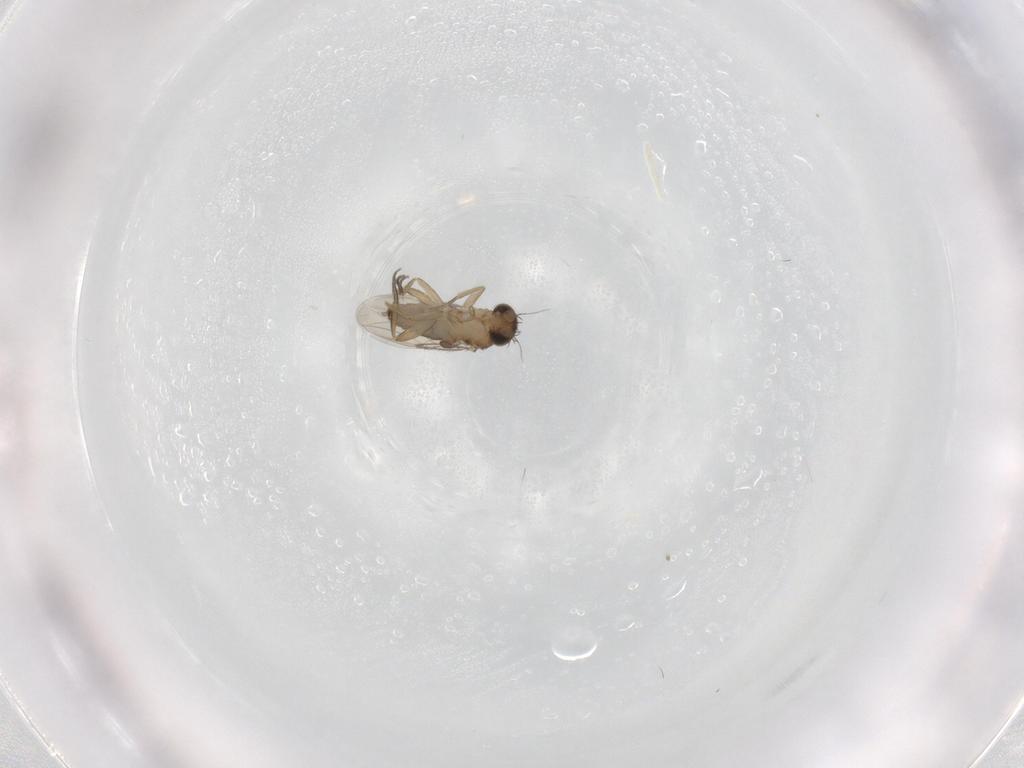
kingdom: Animalia
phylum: Arthropoda
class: Insecta
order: Diptera
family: Phoridae
